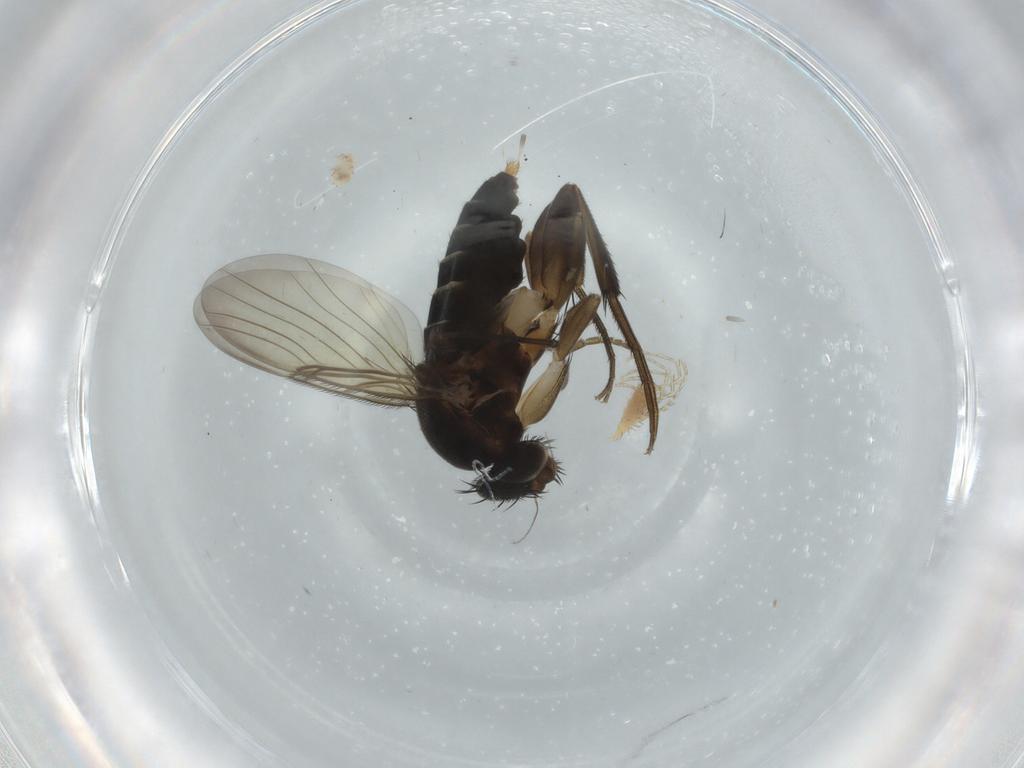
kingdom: Animalia
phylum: Arthropoda
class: Insecta
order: Diptera
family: Phoridae
